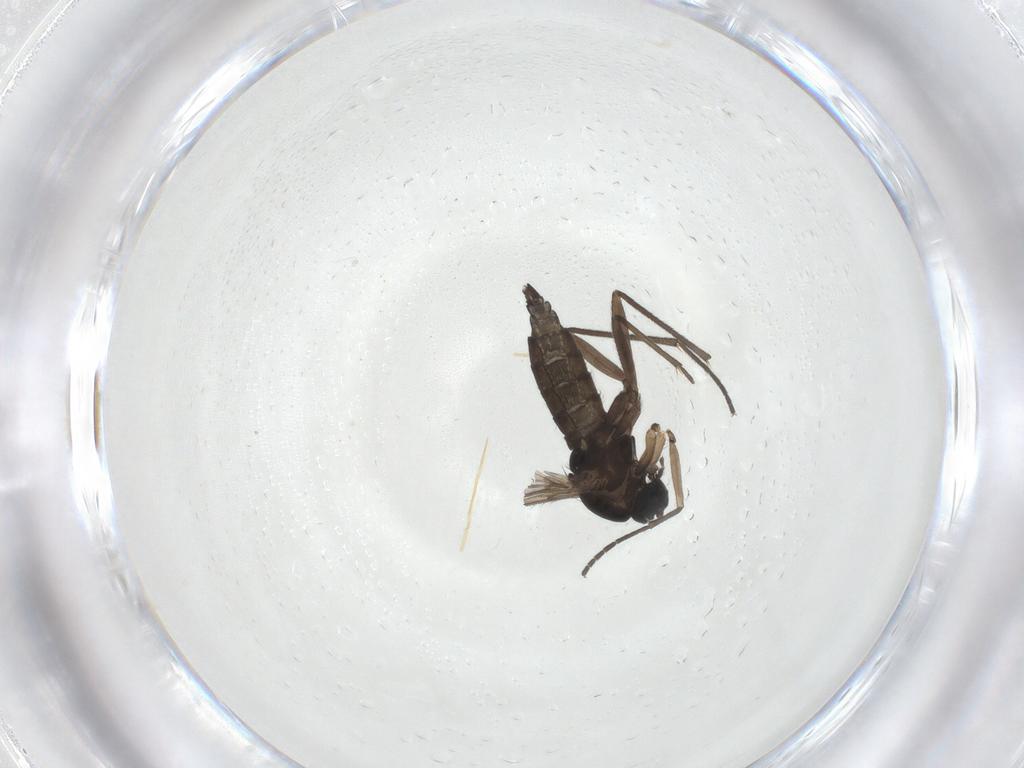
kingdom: Animalia
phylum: Arthropoda
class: Insecta
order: Diptera
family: Sciaridae
